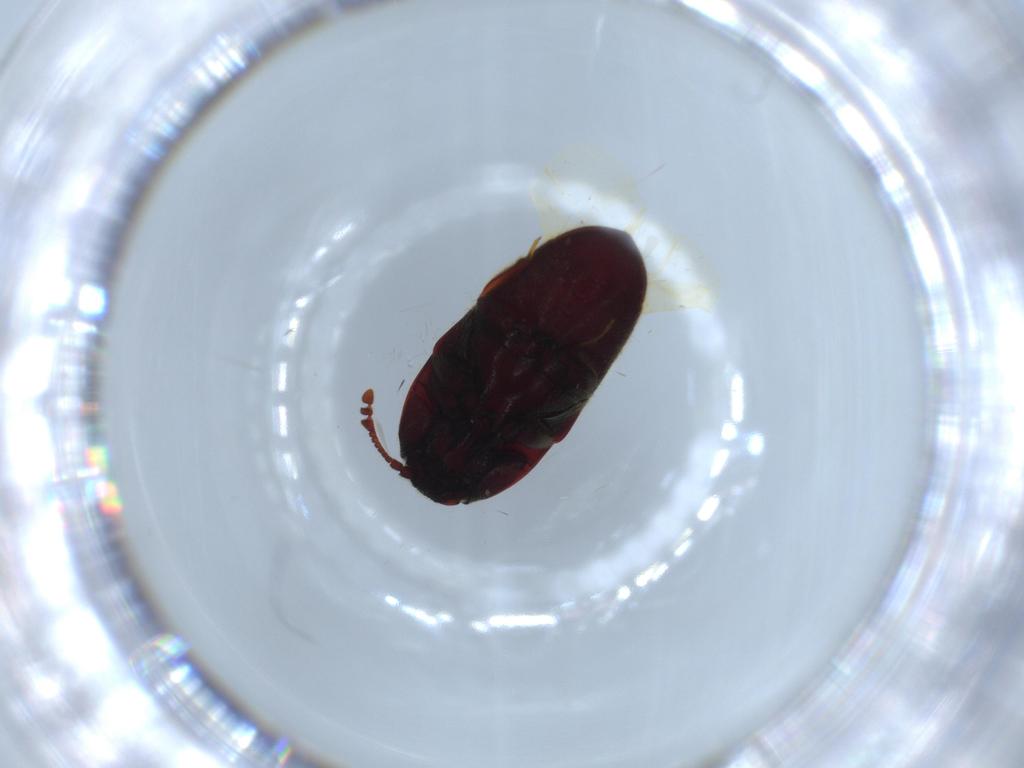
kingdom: Animalia
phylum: Arthropoda
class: Insecta
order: Coleoptera
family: Throscidae
